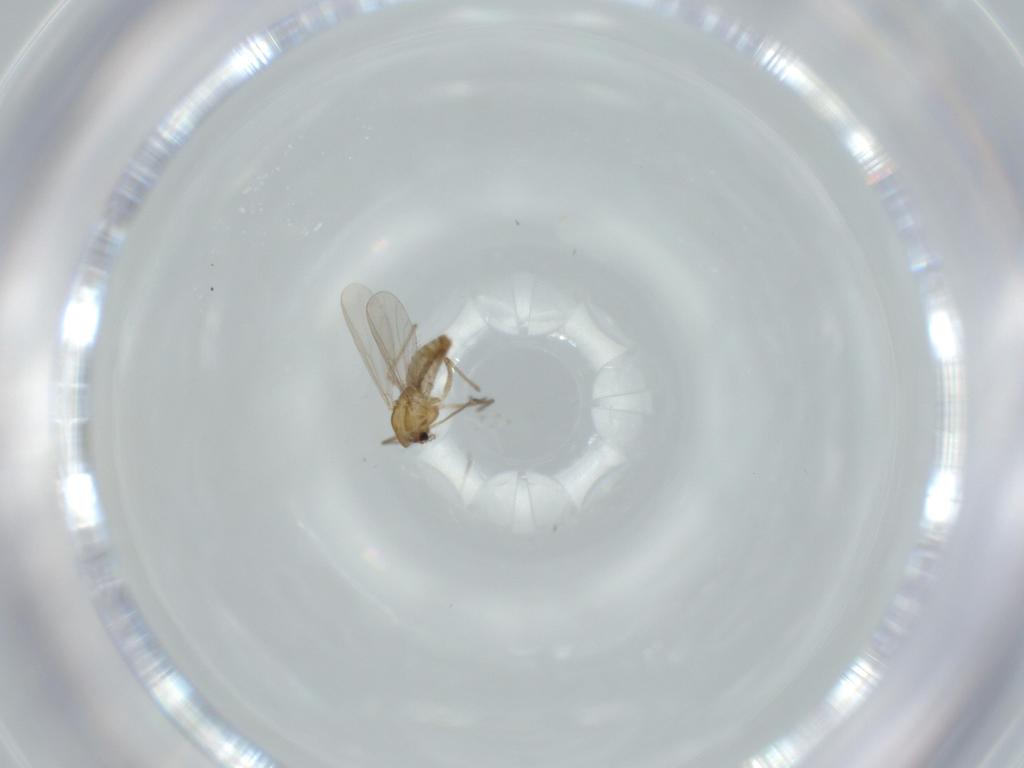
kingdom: Animalia
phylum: Arthropoda
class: Insecta
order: Diptera
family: Chironomidae
